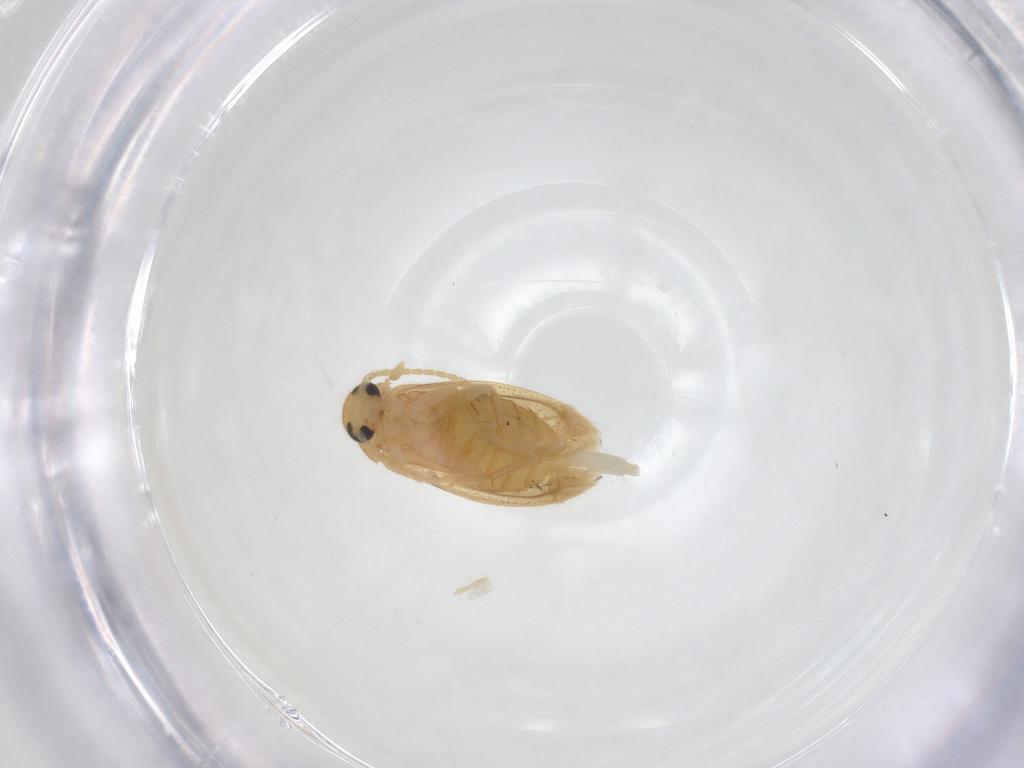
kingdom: Animalia
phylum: Arthropoda
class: Insecta
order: Coleoptera
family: Scraptiidae
